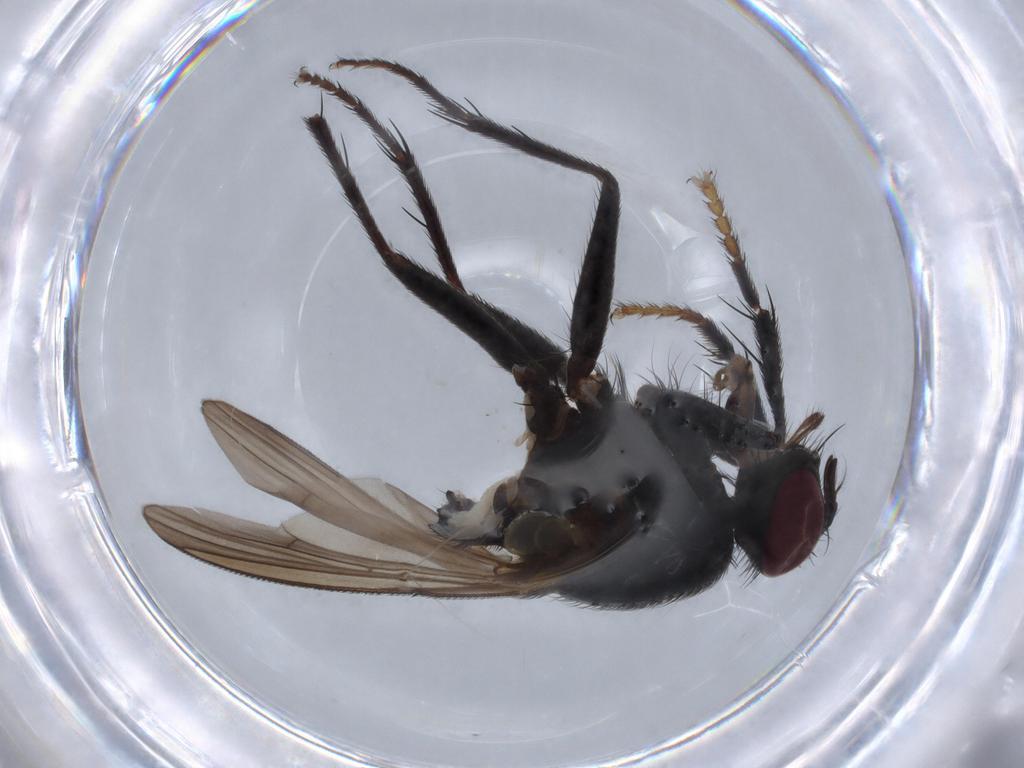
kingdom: Animalia
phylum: Arthropoda
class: Insecta
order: Diptera
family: Muscidae
